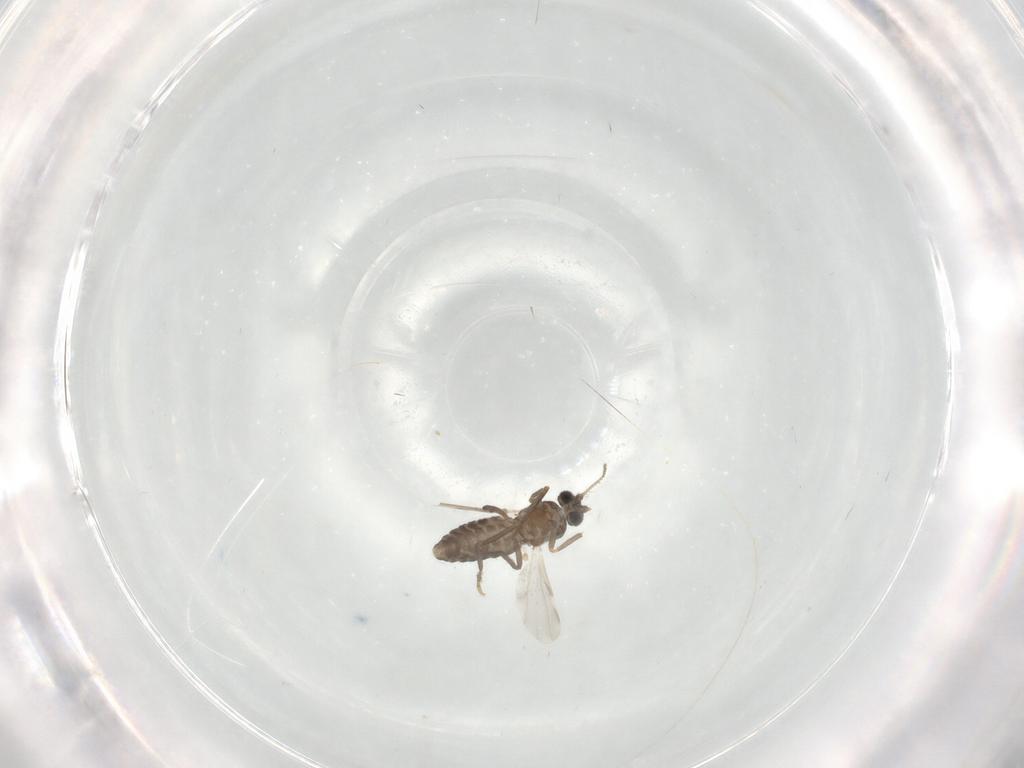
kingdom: Animalia
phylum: Arthropoda
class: Insecta
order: Diptera
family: Ceratopogonidae
